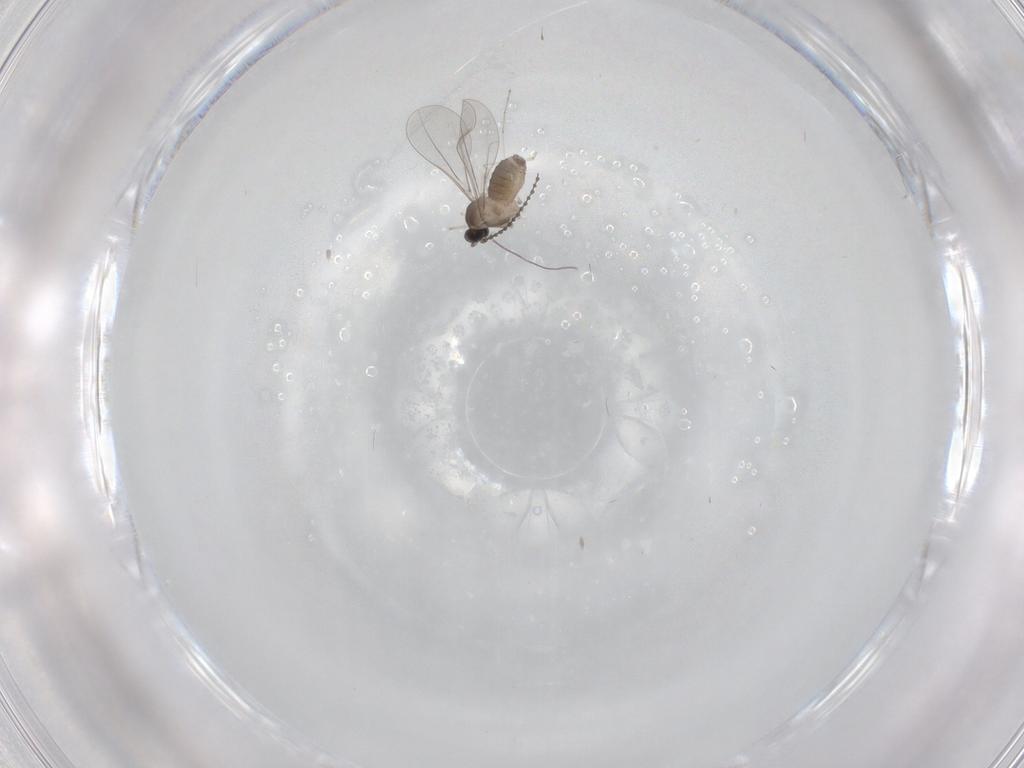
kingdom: Animalia
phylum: Arthropoda
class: Insecta
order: Diptera
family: Cecidomyiidae
